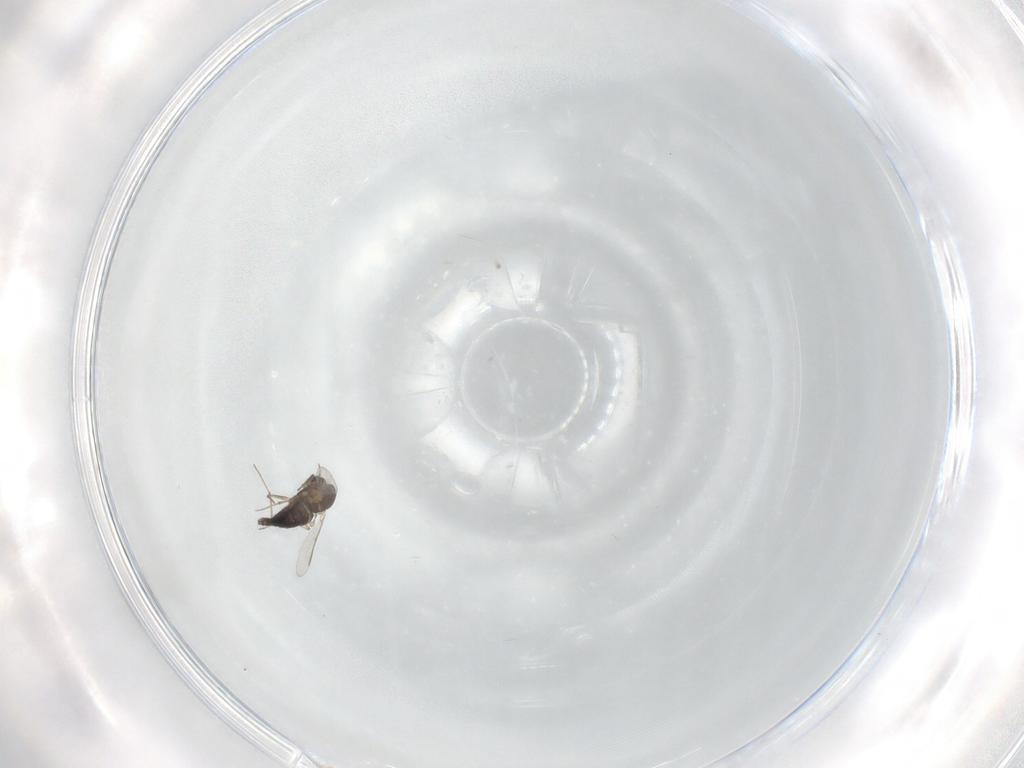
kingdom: Animalia
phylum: Arthropoda
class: Insecta
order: Diptera
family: Chironomidae
